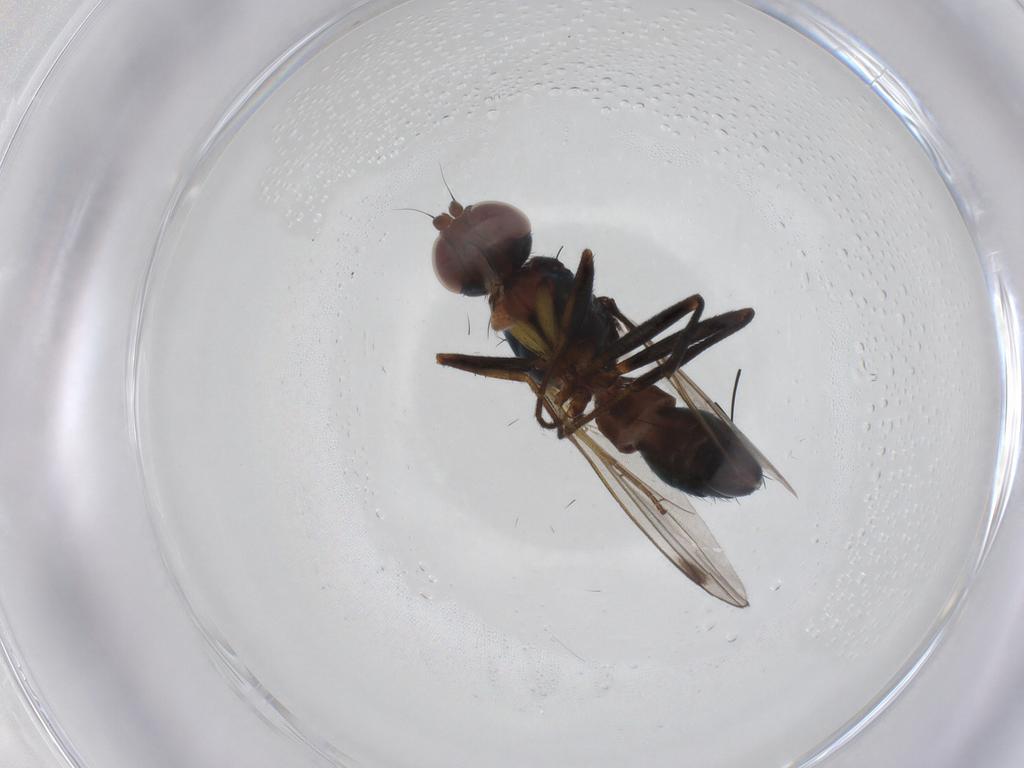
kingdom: Animalia
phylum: Arthropoda
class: Insecta
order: Diptera
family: Sepsidae
